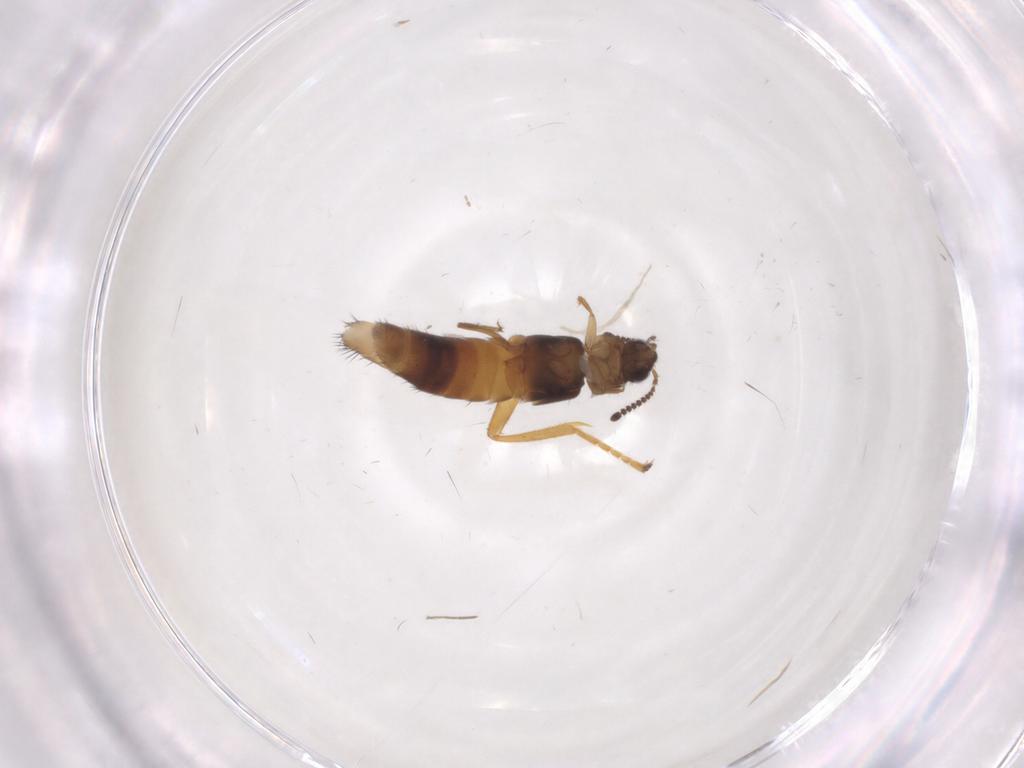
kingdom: Animalia
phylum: Arthropoda
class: Insecta
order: Coleoptera
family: Staphylinidae
